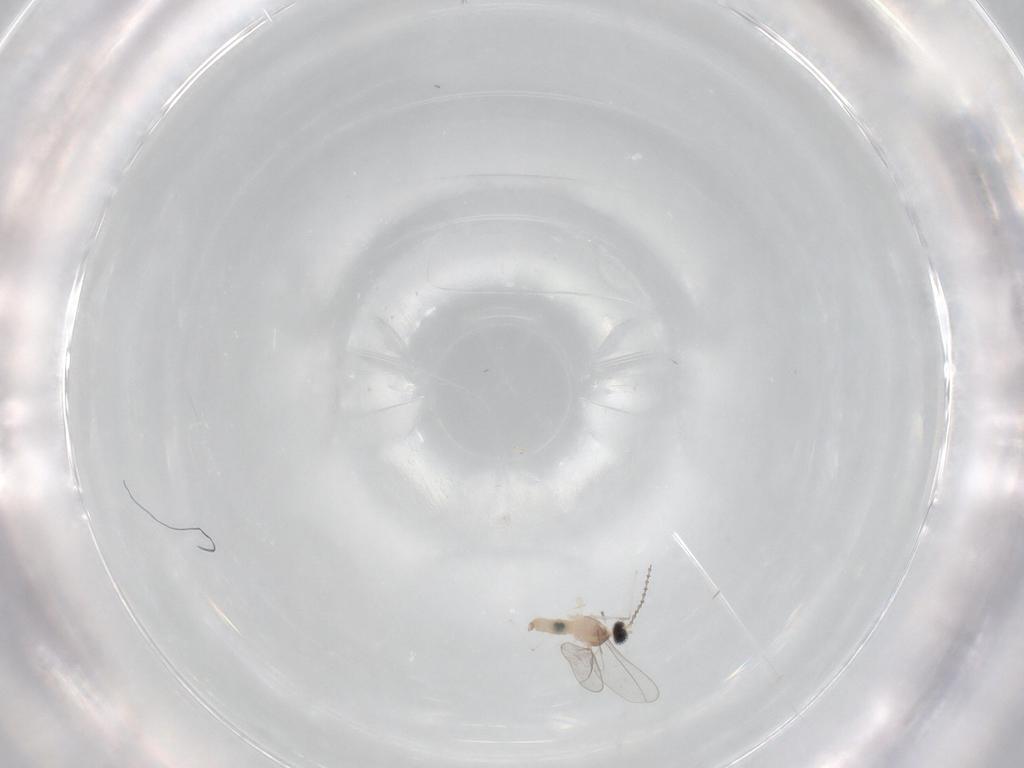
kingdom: Animalia
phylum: Arthropoda
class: Insecta
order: Diptera
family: Cecidomyiidae
